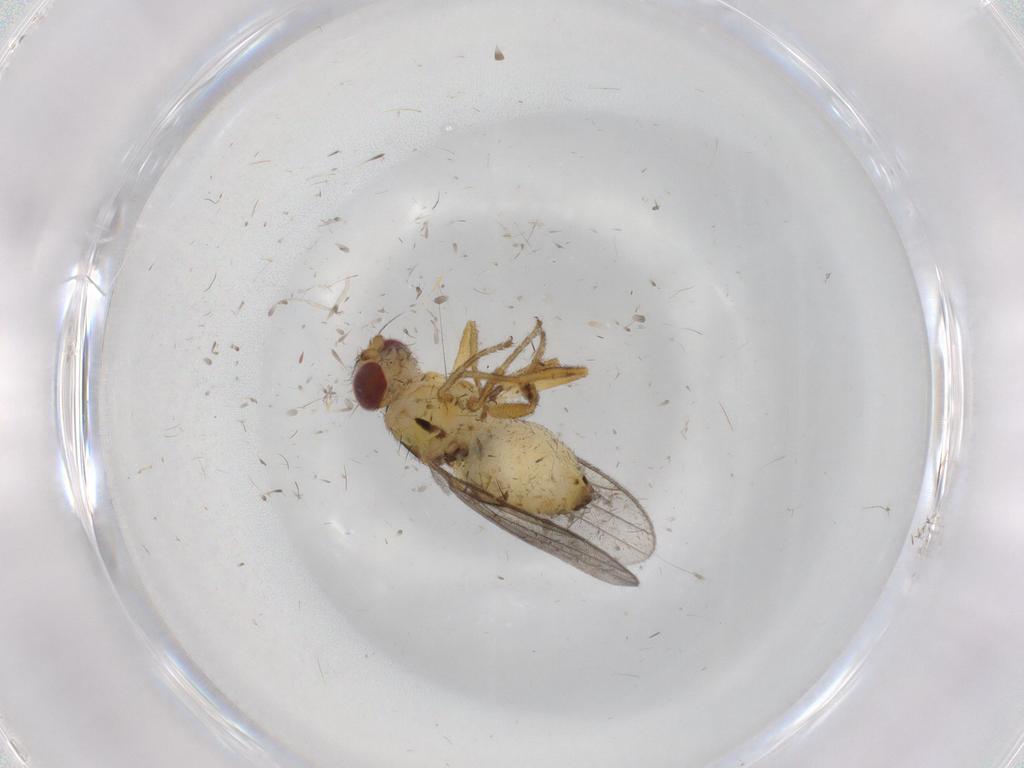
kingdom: Animalia
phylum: Arthropoda
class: Insecta
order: Diptera
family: Chloropidae
